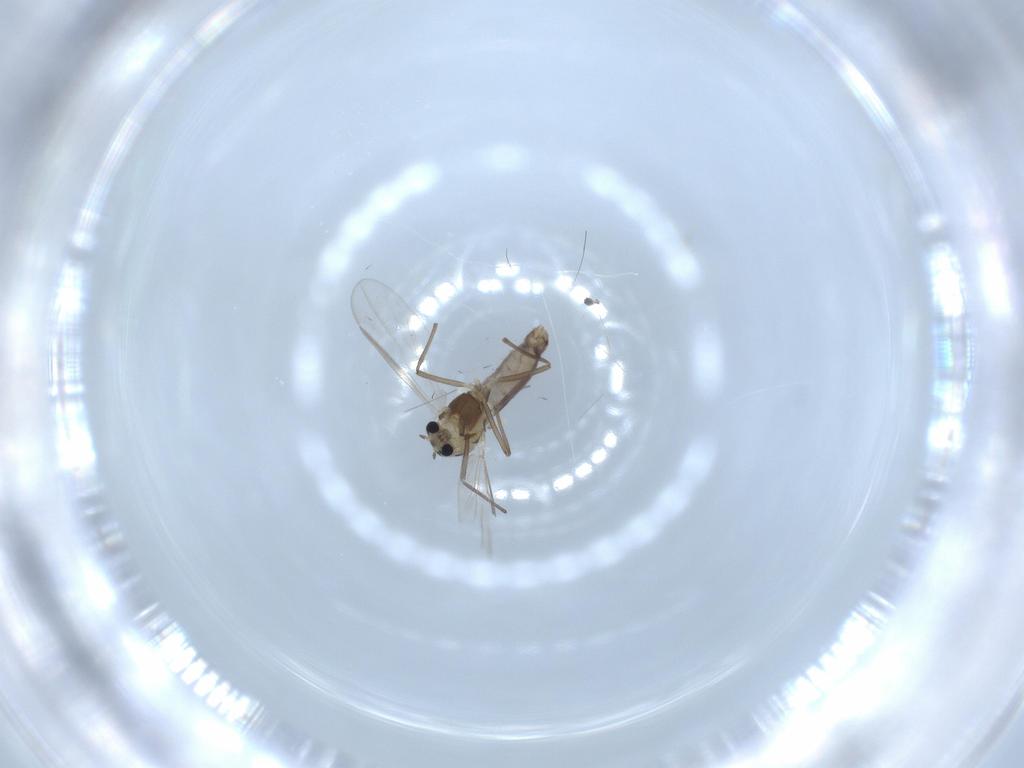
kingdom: Animalia
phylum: Arthropoda
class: Insecta
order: Diptera
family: Chironomidae
